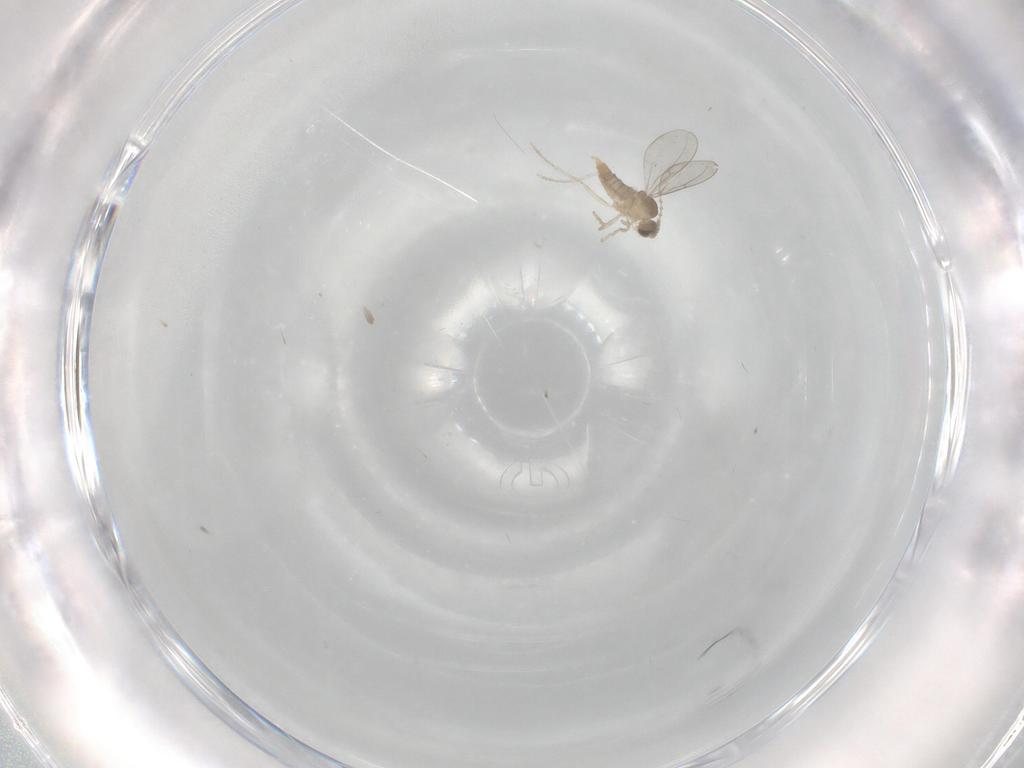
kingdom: Animalia
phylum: Arthropoda
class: Insecta
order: Diptera
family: Cecidomyiidae
